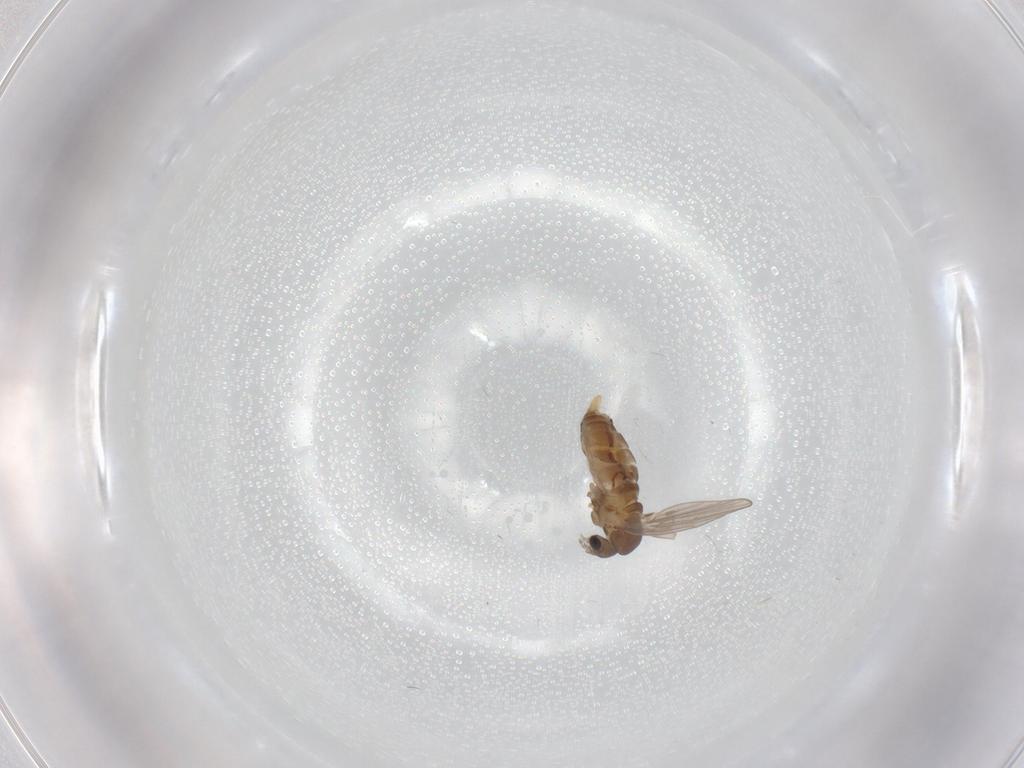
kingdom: Animalia
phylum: Arthropoda
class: Insecta
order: Diptera
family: Chironomidae
